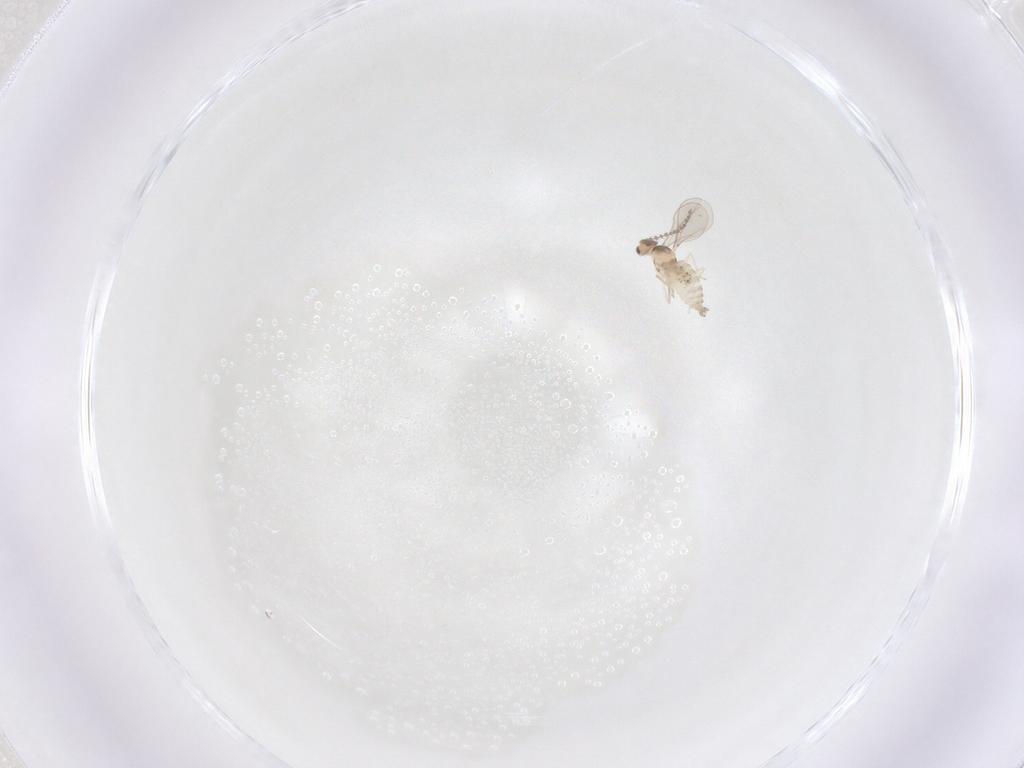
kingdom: Animalia
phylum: Arthropoda
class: Insecta
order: Diptera
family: Cecidomyiidae
